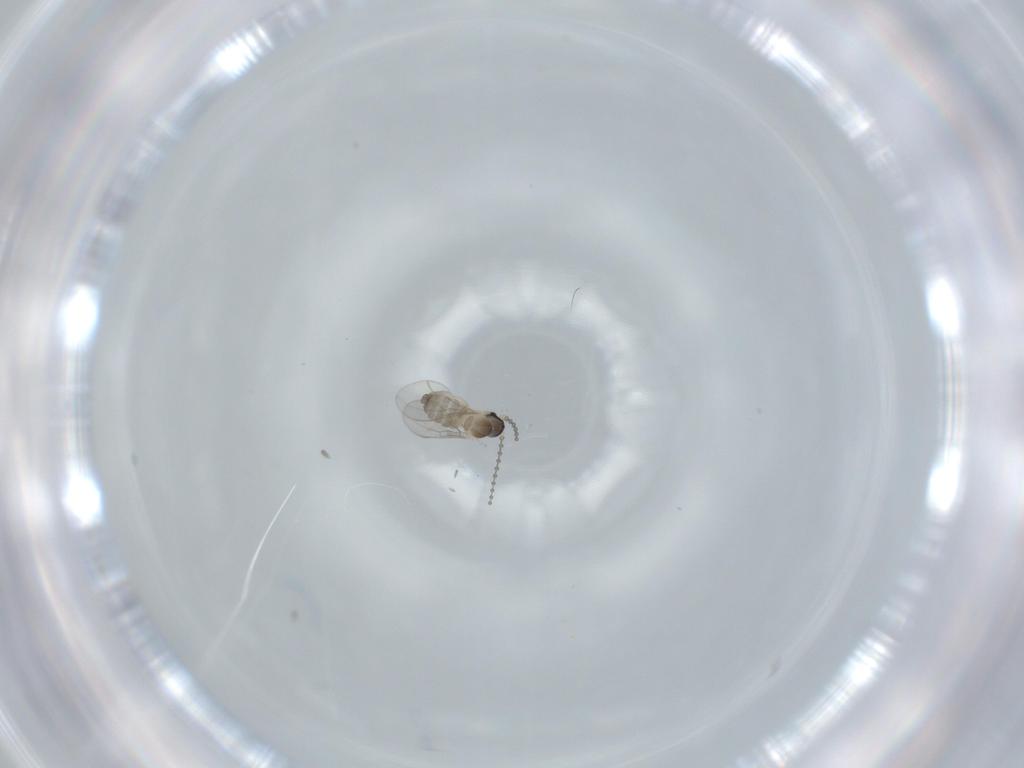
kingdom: Animalia
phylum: Arthropoda
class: Insecta
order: Diptera
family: Cecidomyiidae
